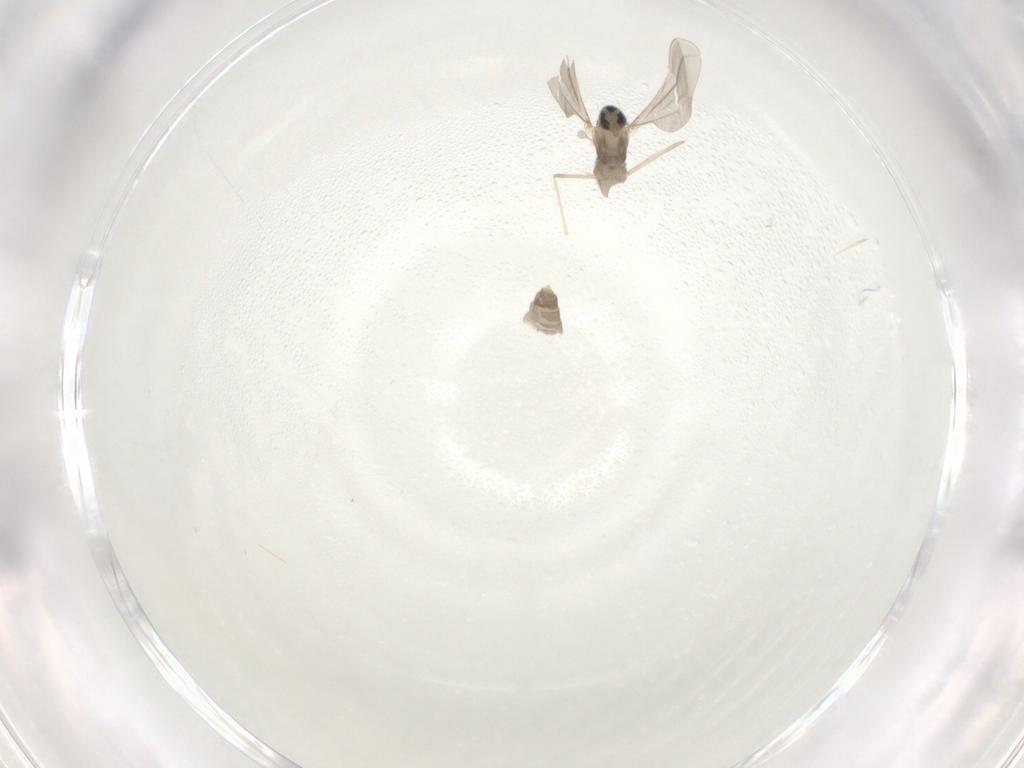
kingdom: Animalia
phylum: Arthropoda
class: Insecta
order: Diptera
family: Cecidomyiidae
